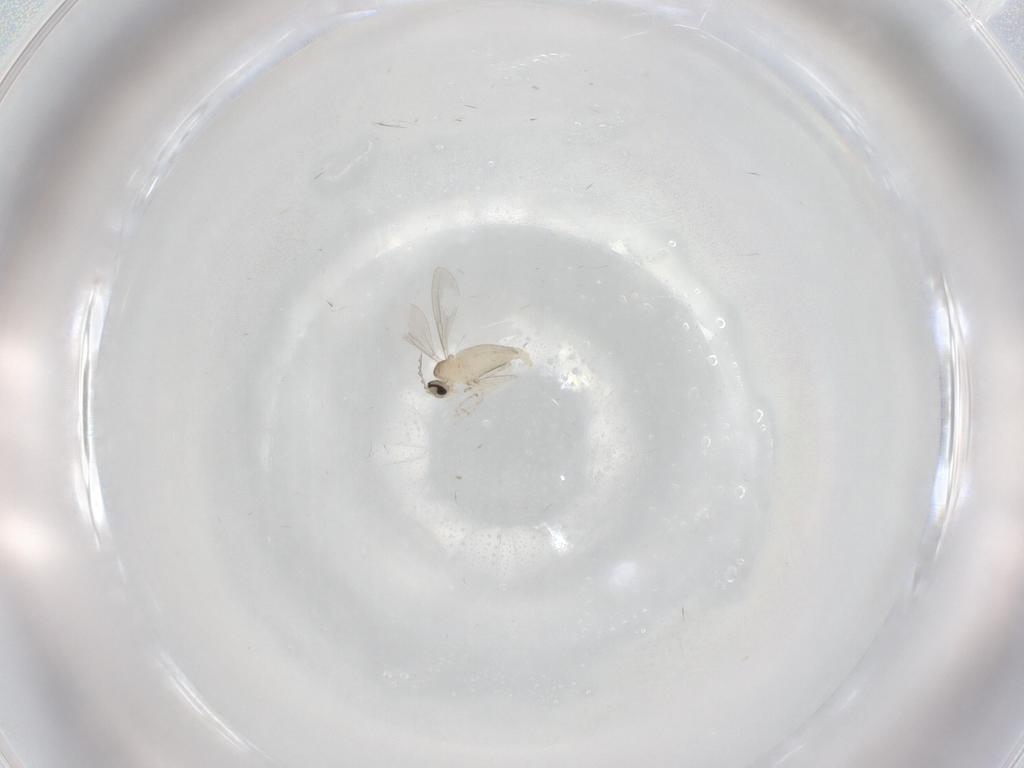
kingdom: Animalia
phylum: Arthropoda
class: Insecta
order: Diptera
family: Cecidomyiidae
